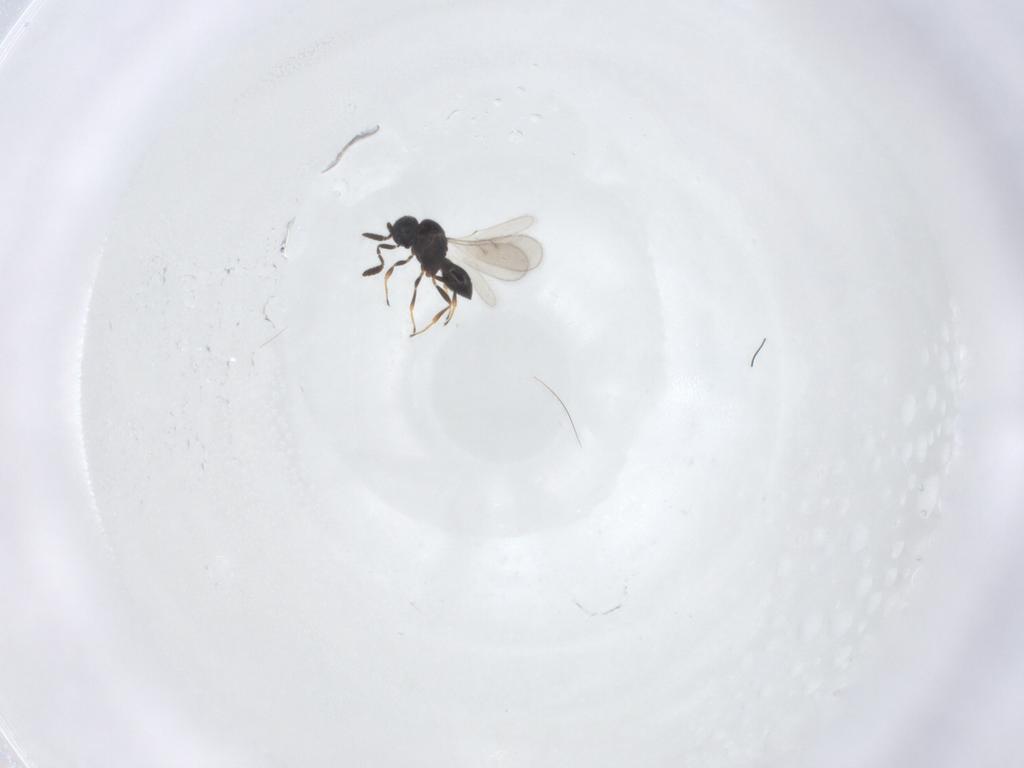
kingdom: Animalia
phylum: Arthropoda
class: Insecta
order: Hymenoptera
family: Scelionidae
